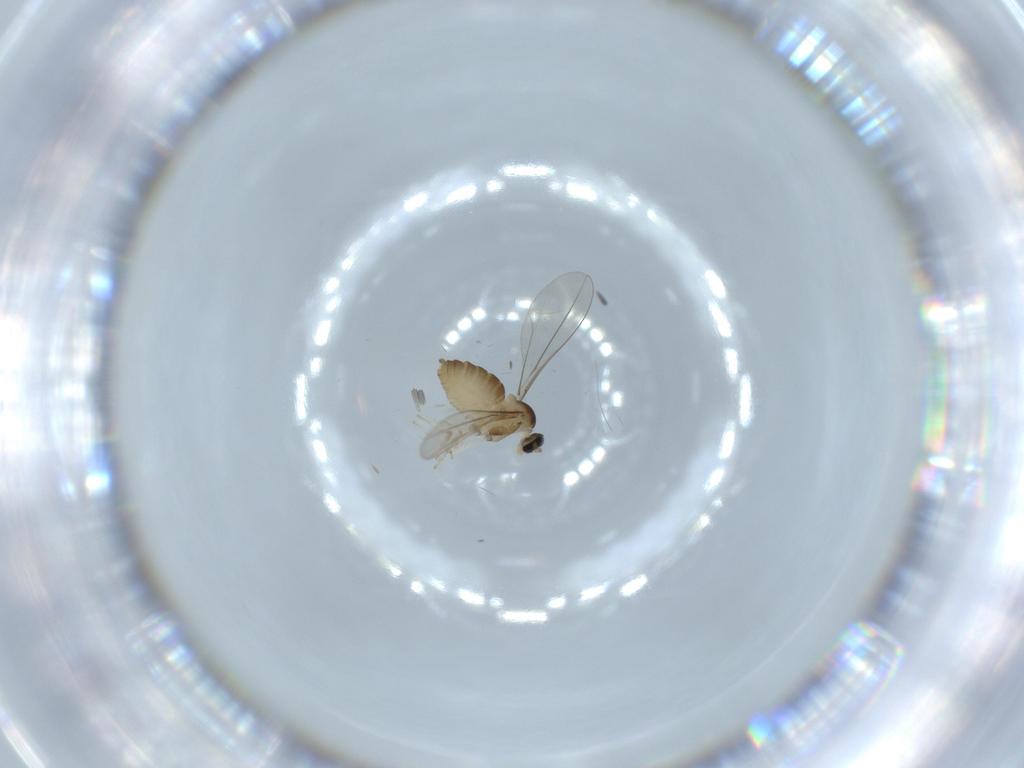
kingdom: Animalia
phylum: Arthropoda
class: Insecta
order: Diptera
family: Cecidomyiidae
